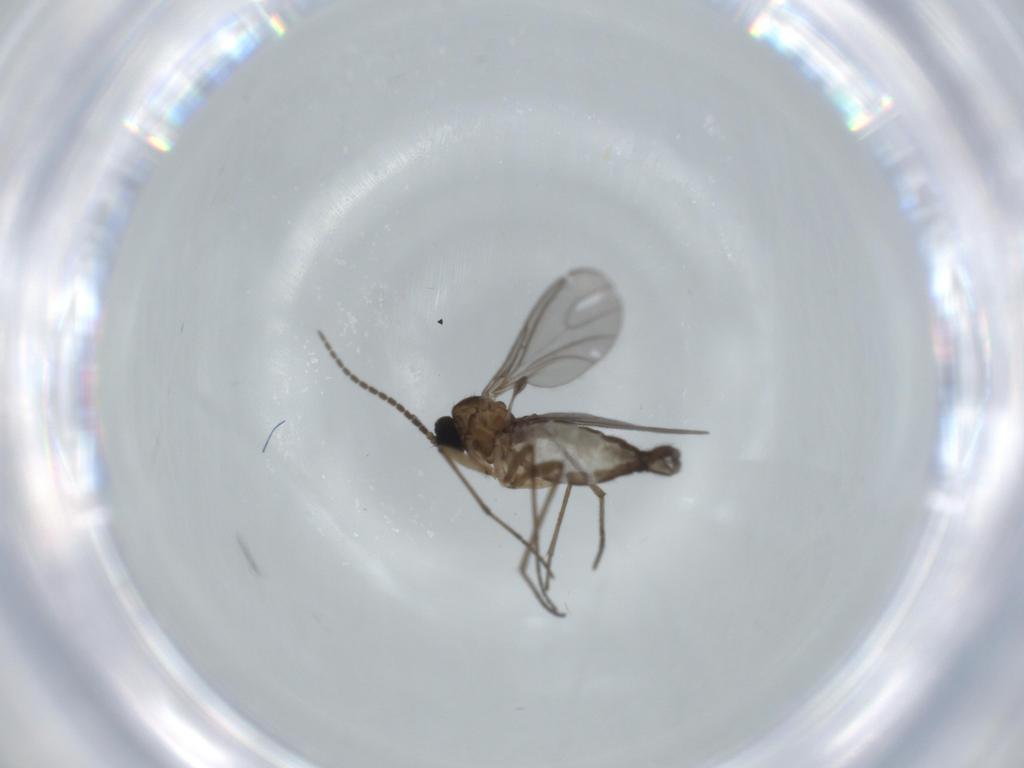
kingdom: Animalia
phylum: Arthropoda
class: Insecta
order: Diptera
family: Sciaridae
